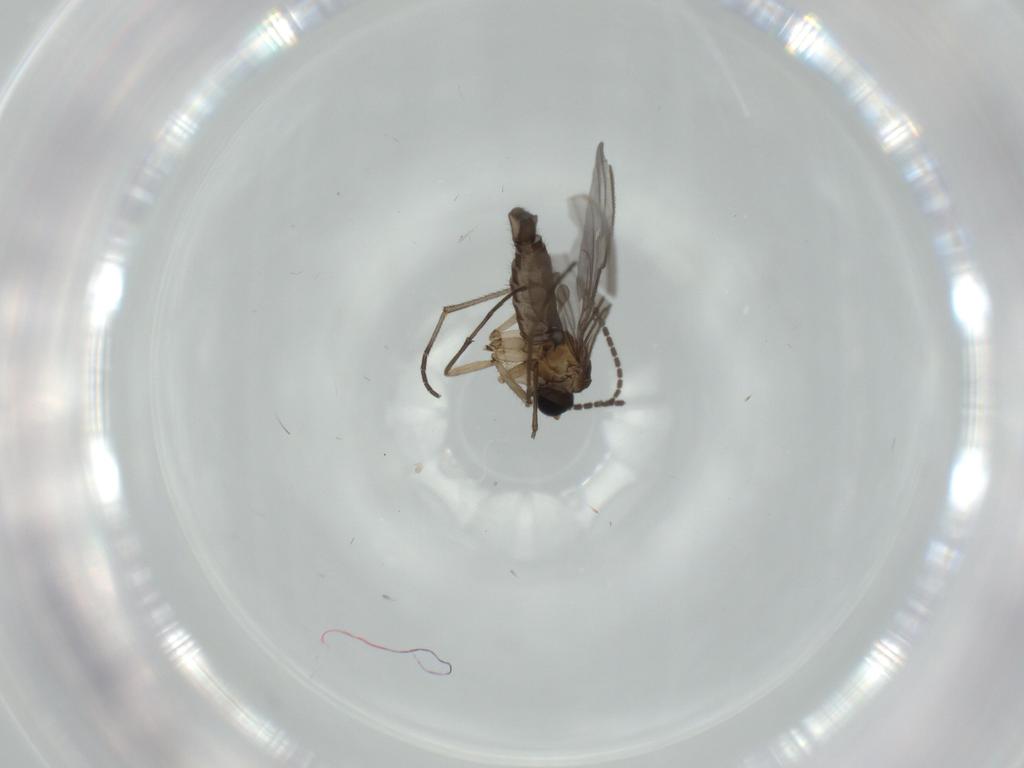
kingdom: Animalia
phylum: Arthropoda
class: Insecta
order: Diptera
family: Sciaridae
